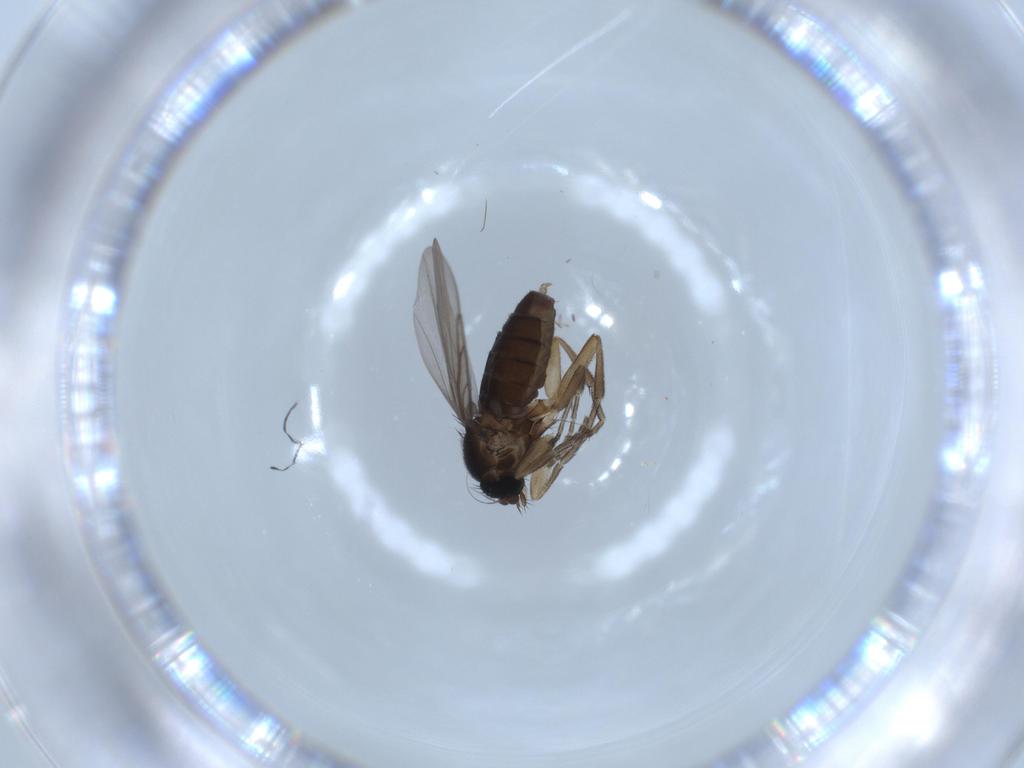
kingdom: Animalia
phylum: Arthropoda
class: Insecta
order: Diptera
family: Phoridae
